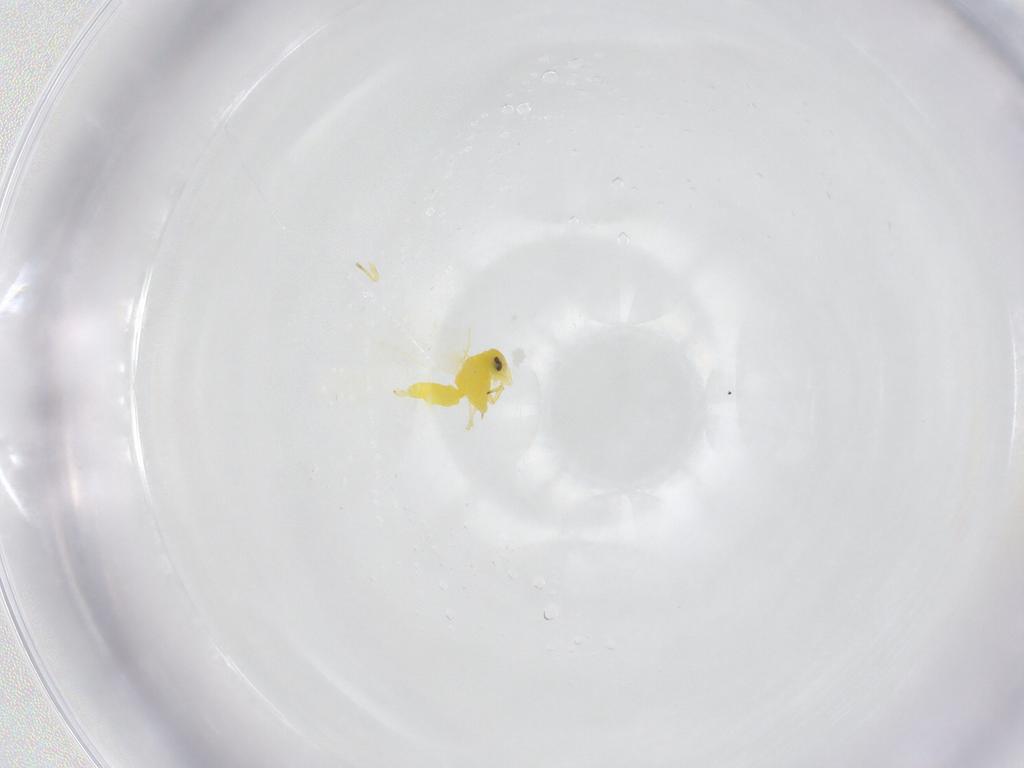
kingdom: Animalia
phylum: Arthropoda
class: Insecta
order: Hemiptera
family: Aleyrodidae
